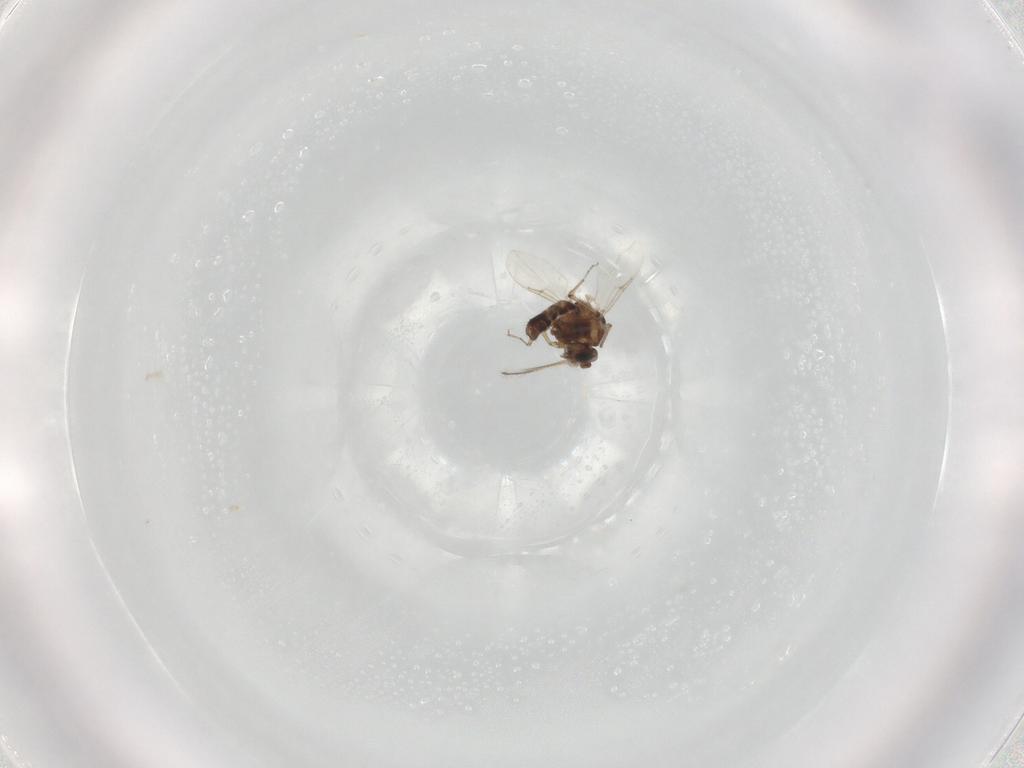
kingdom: Animalia
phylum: Arthropoda
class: Insecta
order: Diptera
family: Ceratopogonidae
